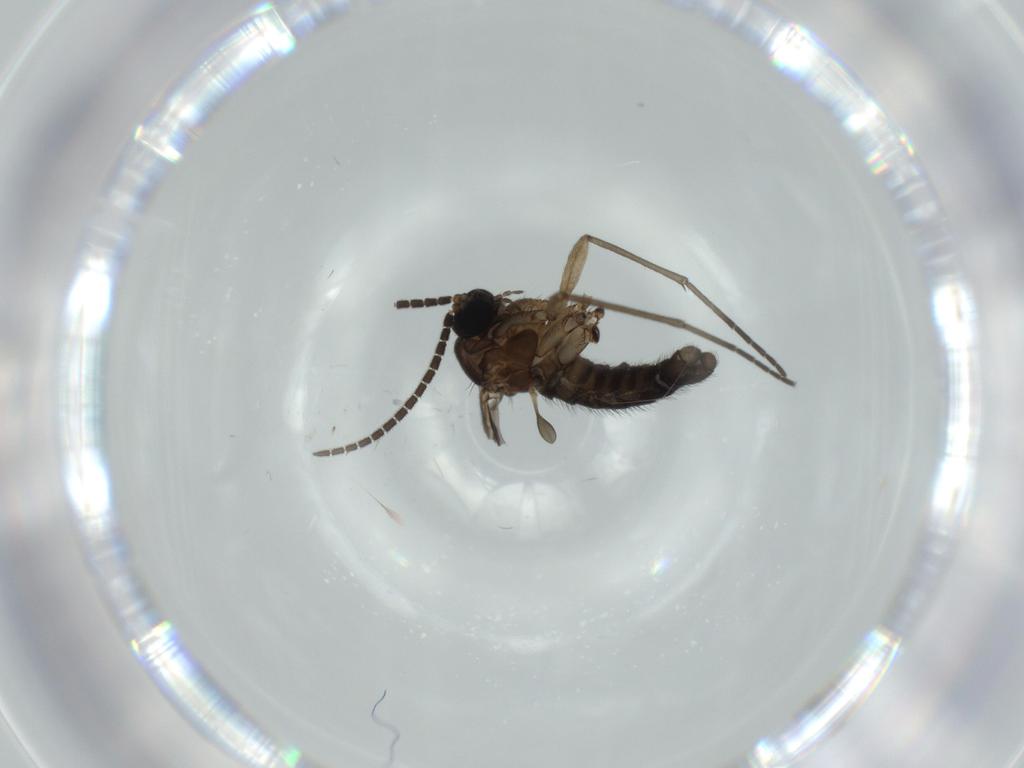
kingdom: Animalia
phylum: Arthropoda
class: Insecta
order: Diptera
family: Sciaridae
